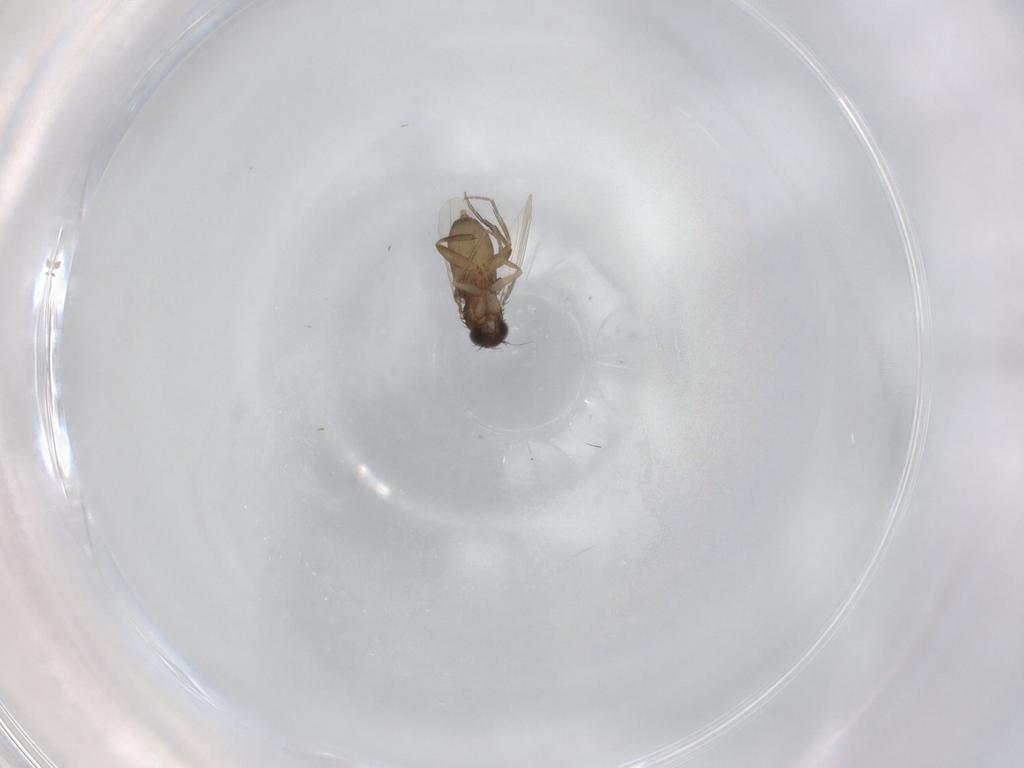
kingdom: Animalia
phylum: Arthropoda
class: Insecta
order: Diptera
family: Phoridae
